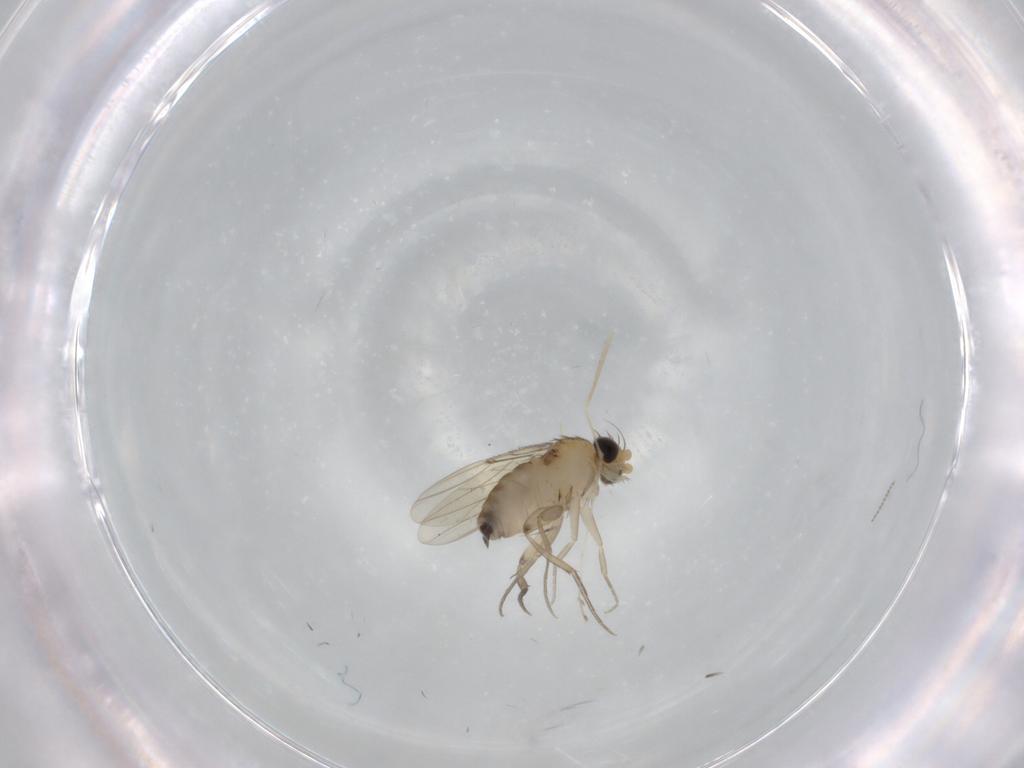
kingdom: Animalia
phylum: Arthropoda
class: Insecta
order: Diptera
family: Phoridae
